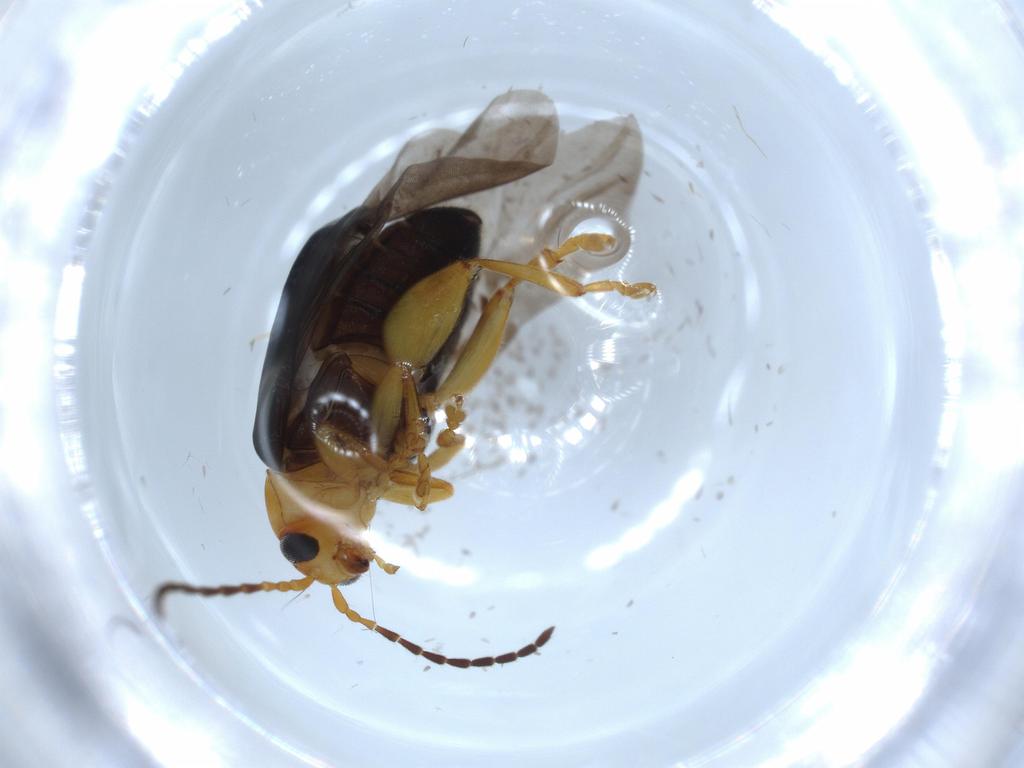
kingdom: Animalia
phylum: Arthropoda
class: Insecta
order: Coleoptera
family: Chrysomelidae
